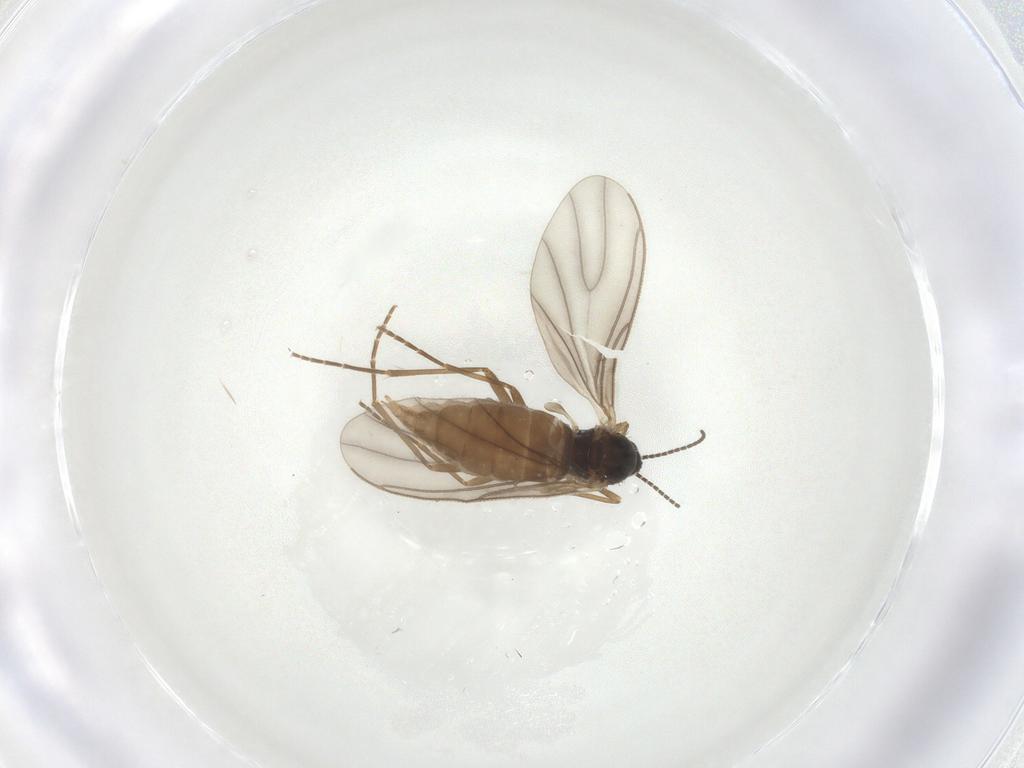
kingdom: Animalia
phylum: Arthropoda
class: Insecta
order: Diptera
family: Sciaridae
